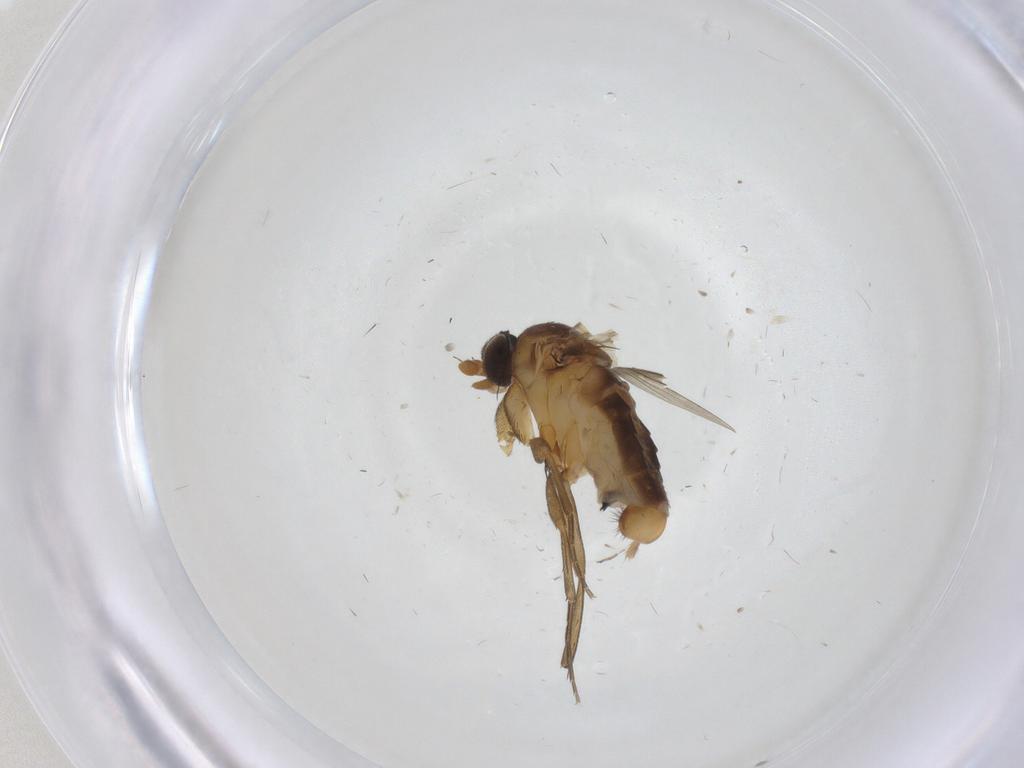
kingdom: Animalia
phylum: Arthropoda
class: Insecta
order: Diptera
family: Phoridae
